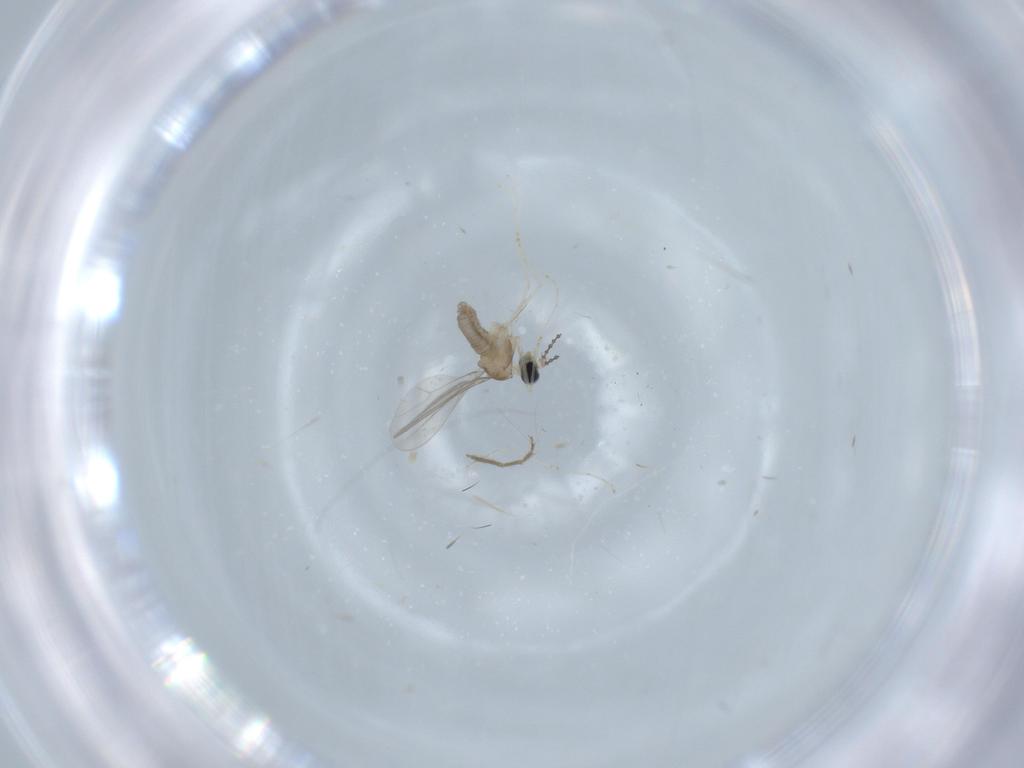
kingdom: Animalia
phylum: Arthropoda
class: Insecta
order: Diptera
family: Cecidomyiidae
